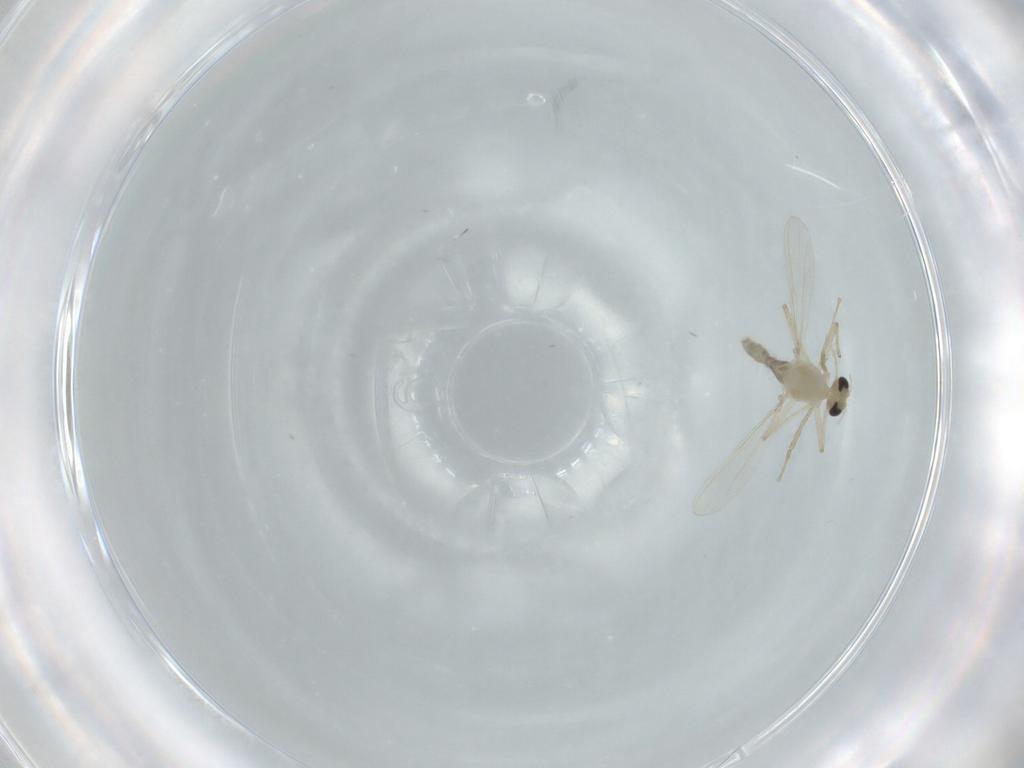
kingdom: Animalia
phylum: Arthropoda
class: Insecta
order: Diptera
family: Chironomidae
